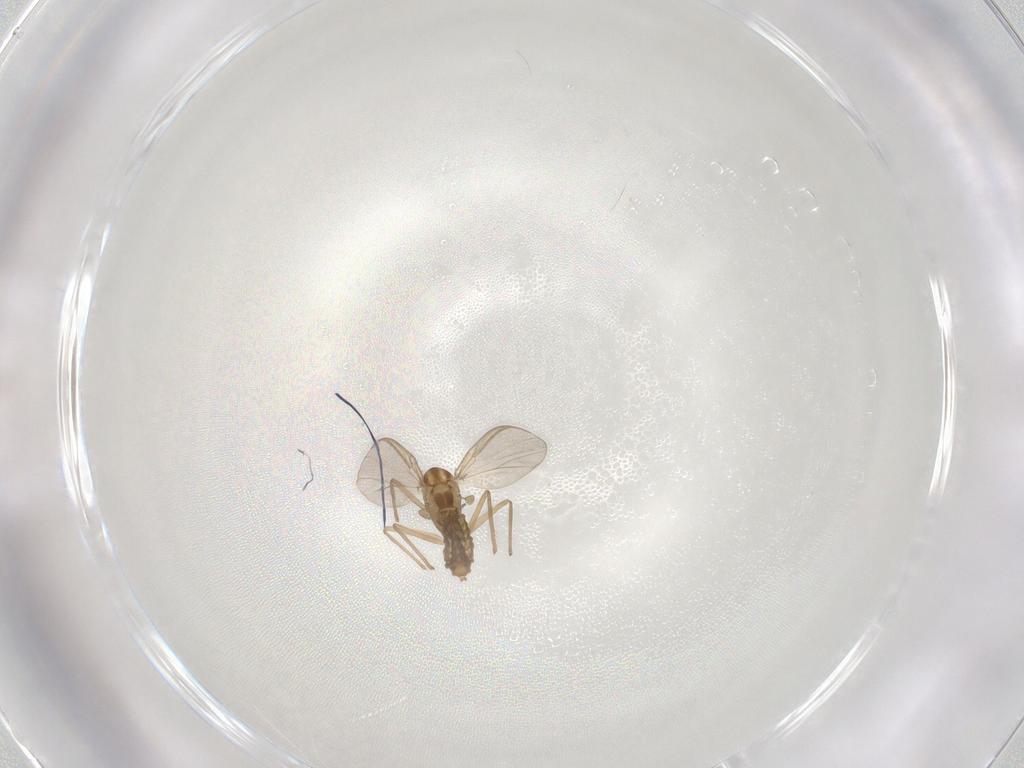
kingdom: Animalia
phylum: Arthropoda
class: Insecta
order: Diptera
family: Chironomidae
